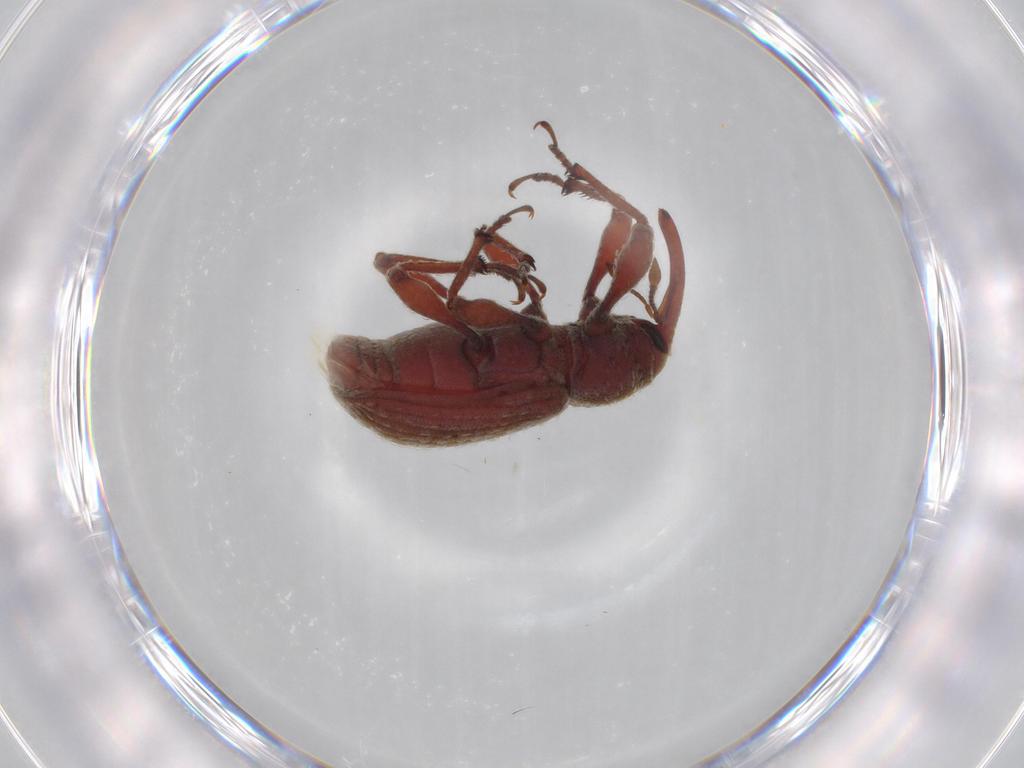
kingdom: Animalia
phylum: Arthropoda
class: Insecta
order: Coleoptera
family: Curculionidae
